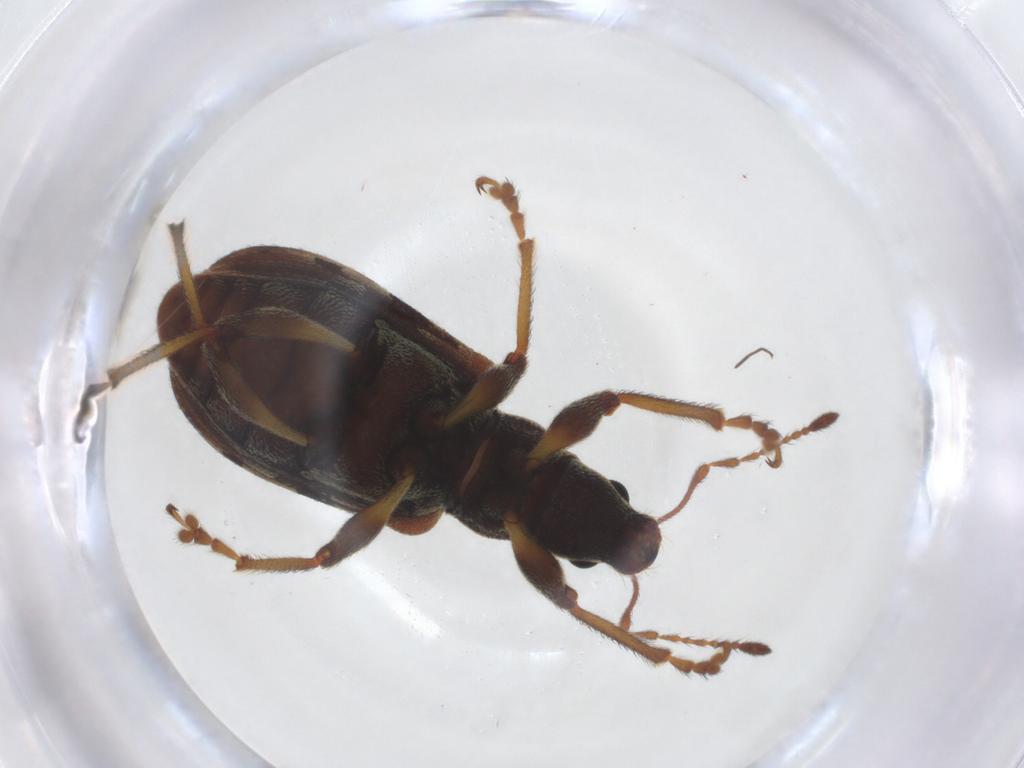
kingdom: Animalia
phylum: Arthropoda
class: Insecta
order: Coleoptera
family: Curculionidae
